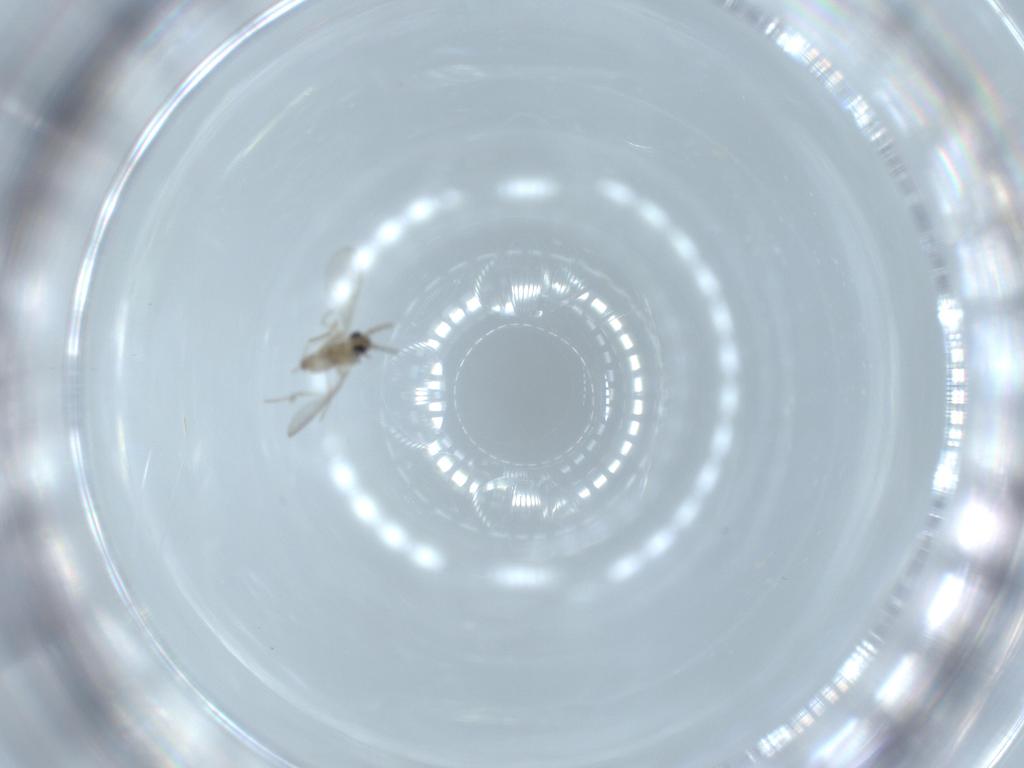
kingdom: Animalia
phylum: Arthropoda
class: Insecta
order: Diptera
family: Cecidomyiidae
